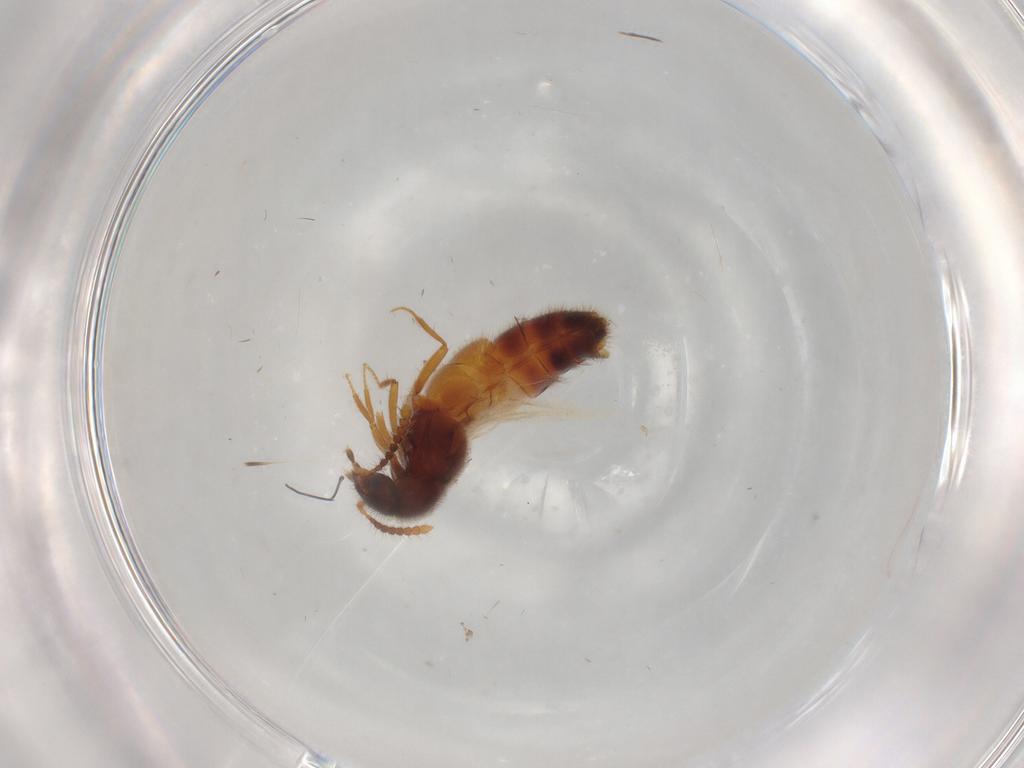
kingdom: Animalia
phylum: Arthropoda
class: Insecta
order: Coleoptera
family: Staphylinidae
